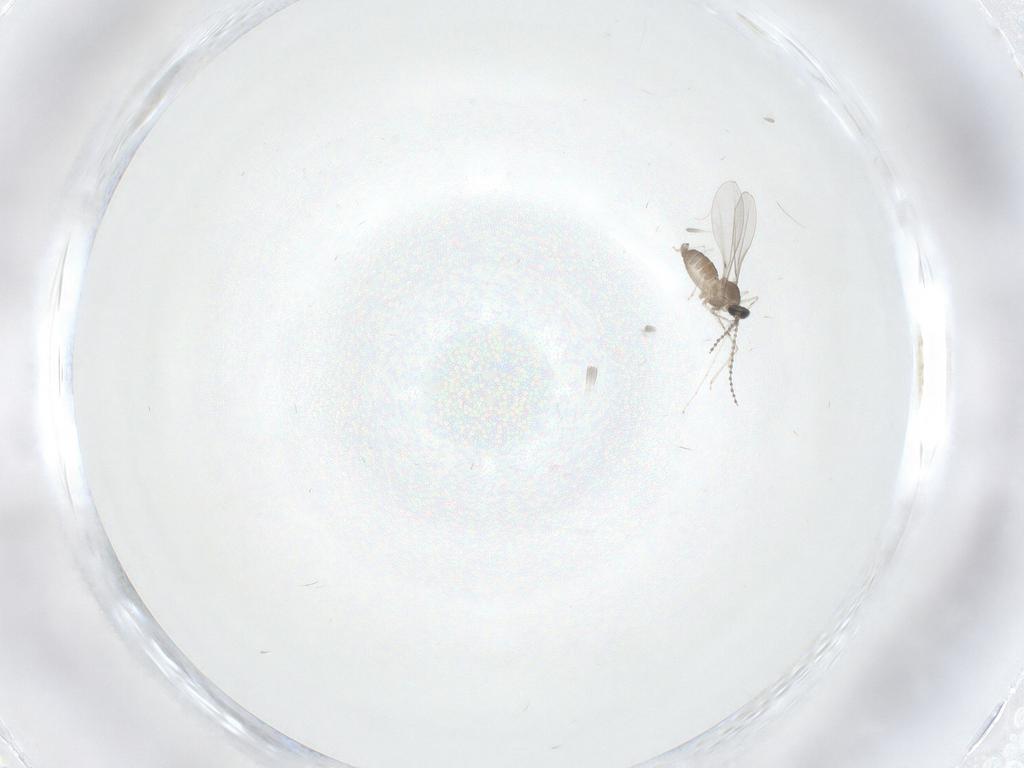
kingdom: Animalia
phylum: Arthropoda
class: Insecta
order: Diptera
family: Cecidomyiidae
